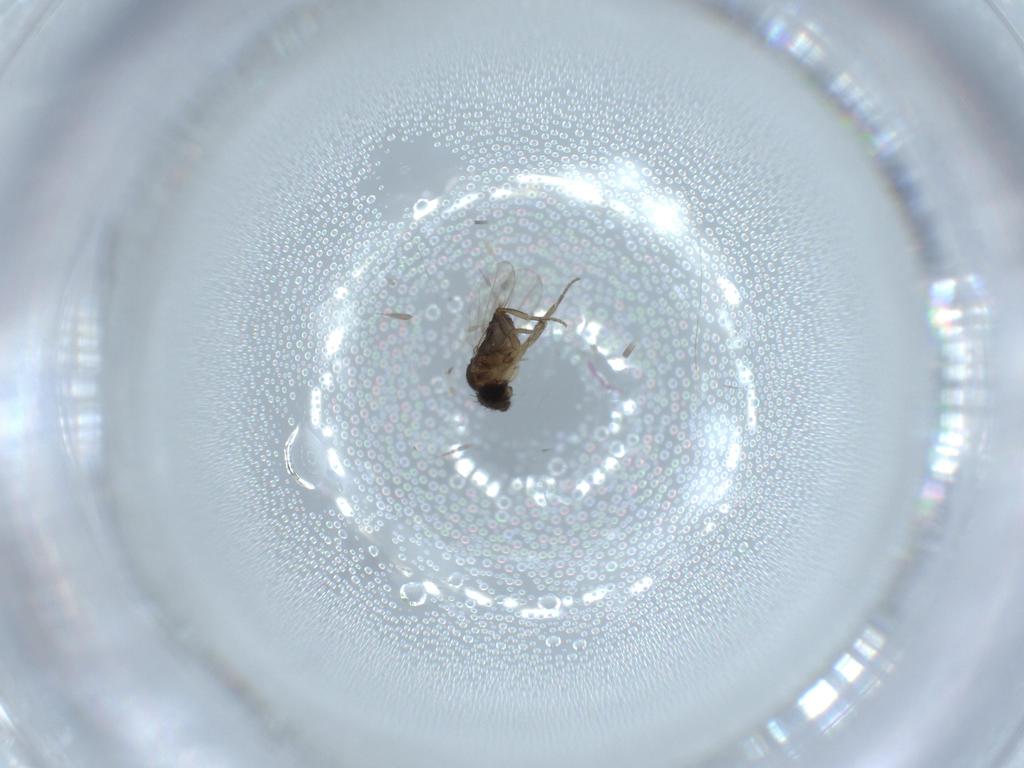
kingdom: Animalia
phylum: Arthropoda
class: Insecta
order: Diptera
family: Phoridae
